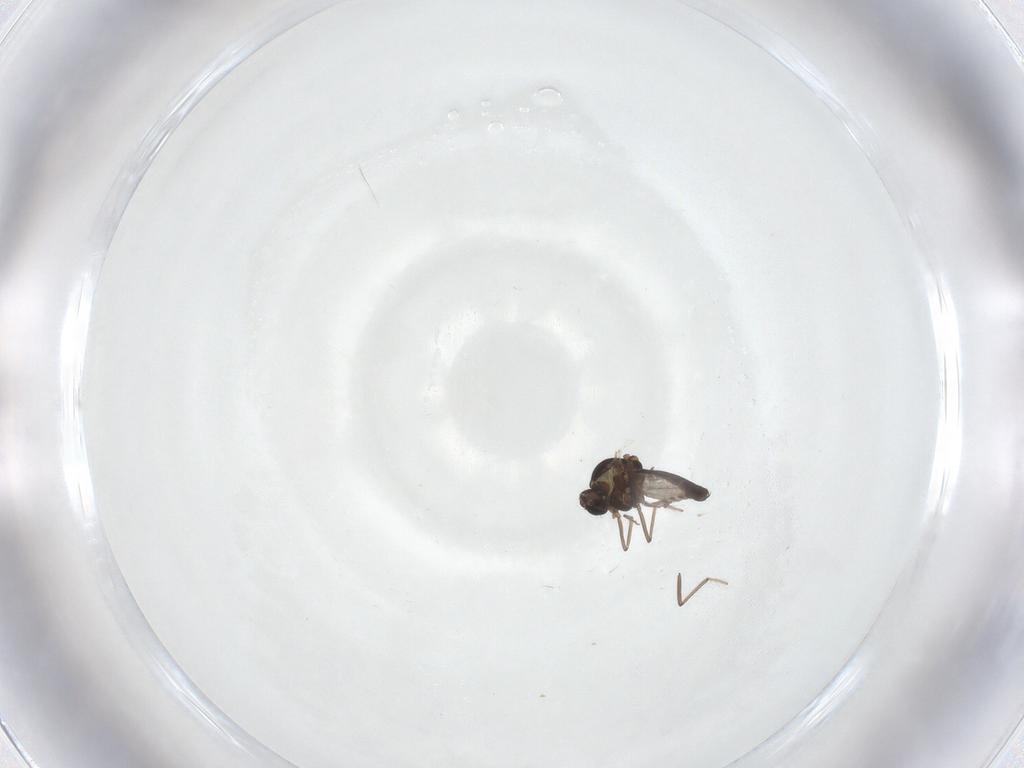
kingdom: Animalia
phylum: Arthropoda
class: Insecta
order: Diptera
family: Ceratopogonidae
